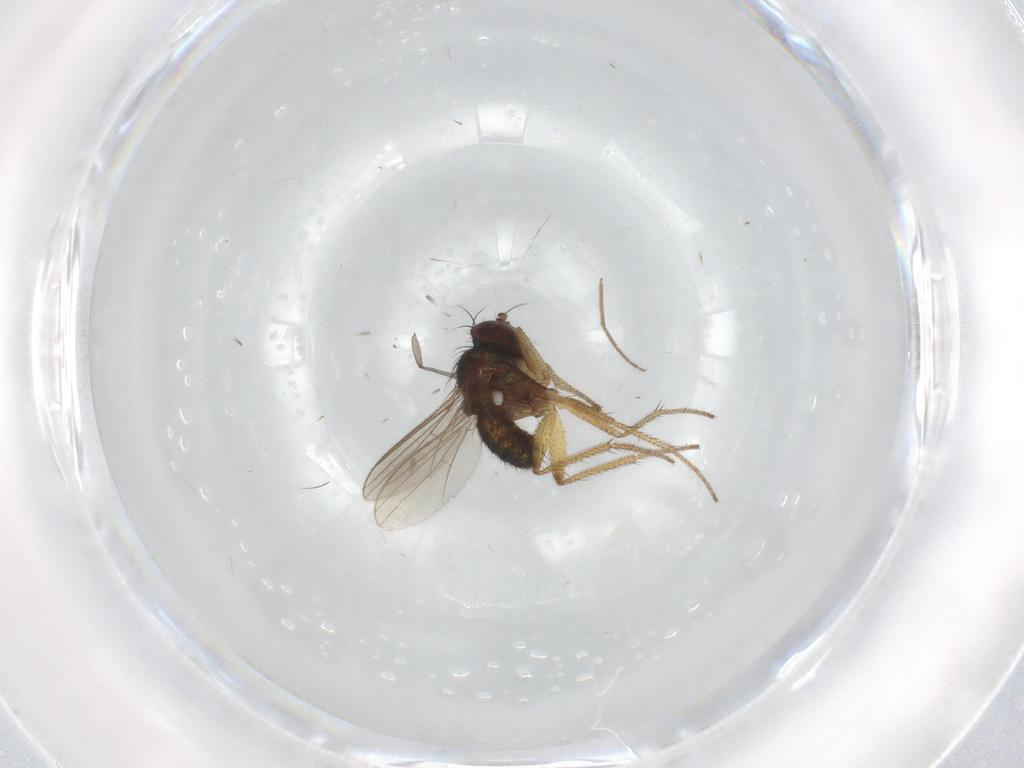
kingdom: Animalia
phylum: Arthropoda
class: Insecta
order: Diptera
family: Sciaridae
